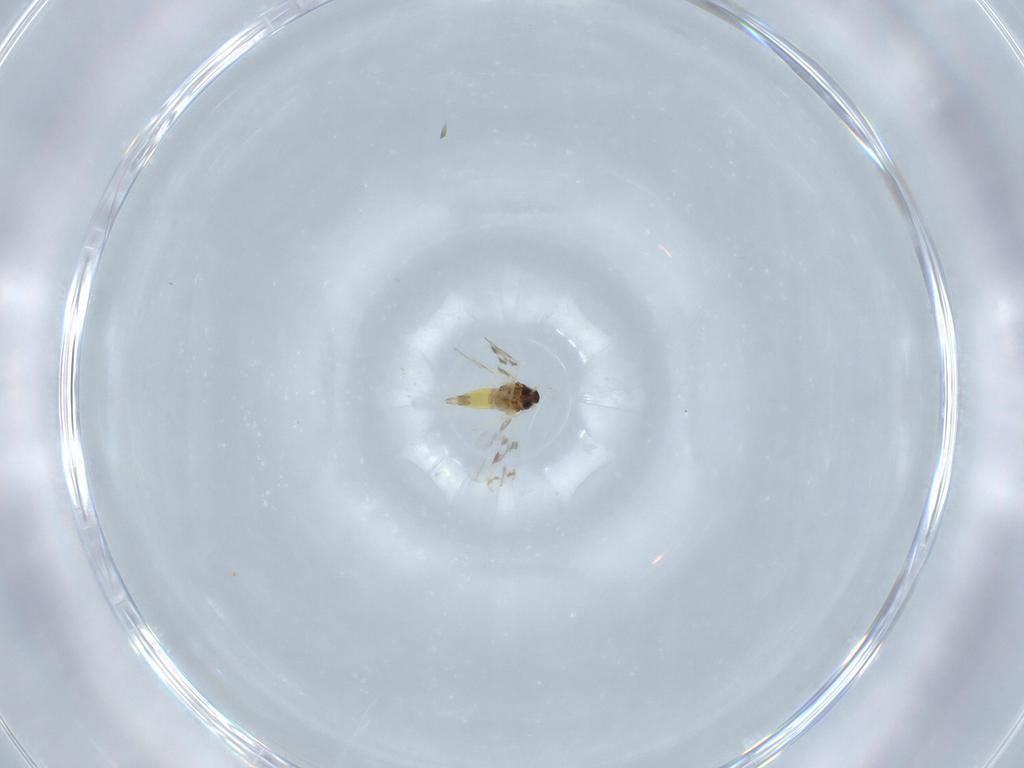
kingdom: Animalia
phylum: Arthropoda
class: Insecta
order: Hemiptera
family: Aleyrodidae
